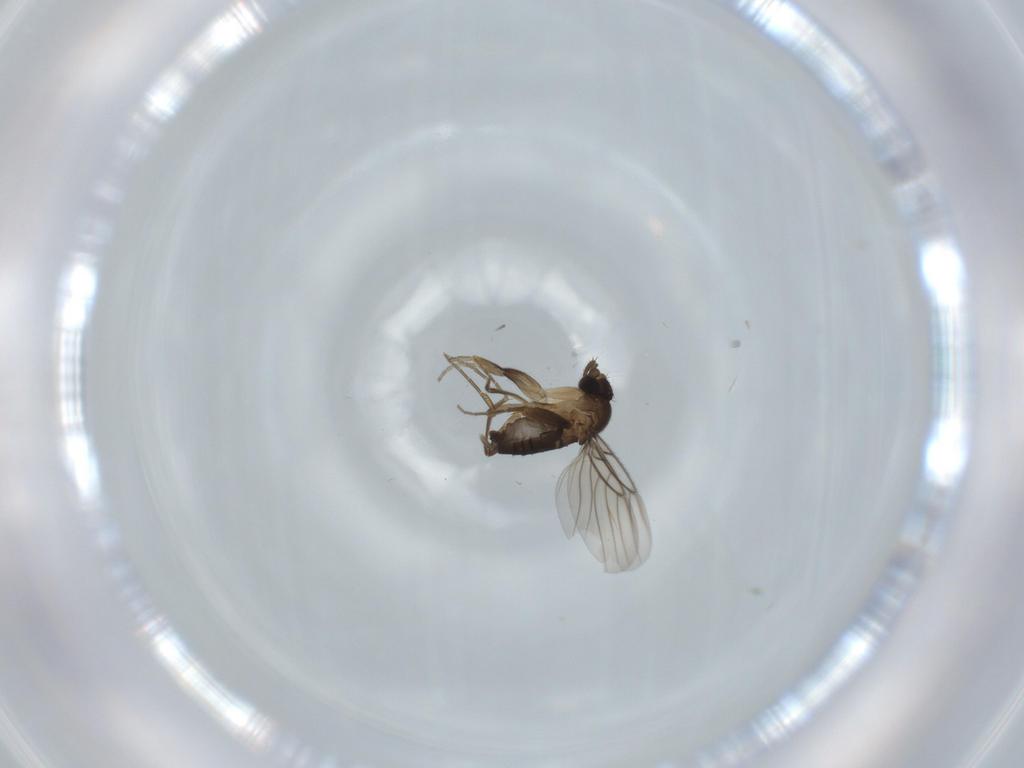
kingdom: Animalia
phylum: Arthropoda
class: Insecta
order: Diptera
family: Phoridae
